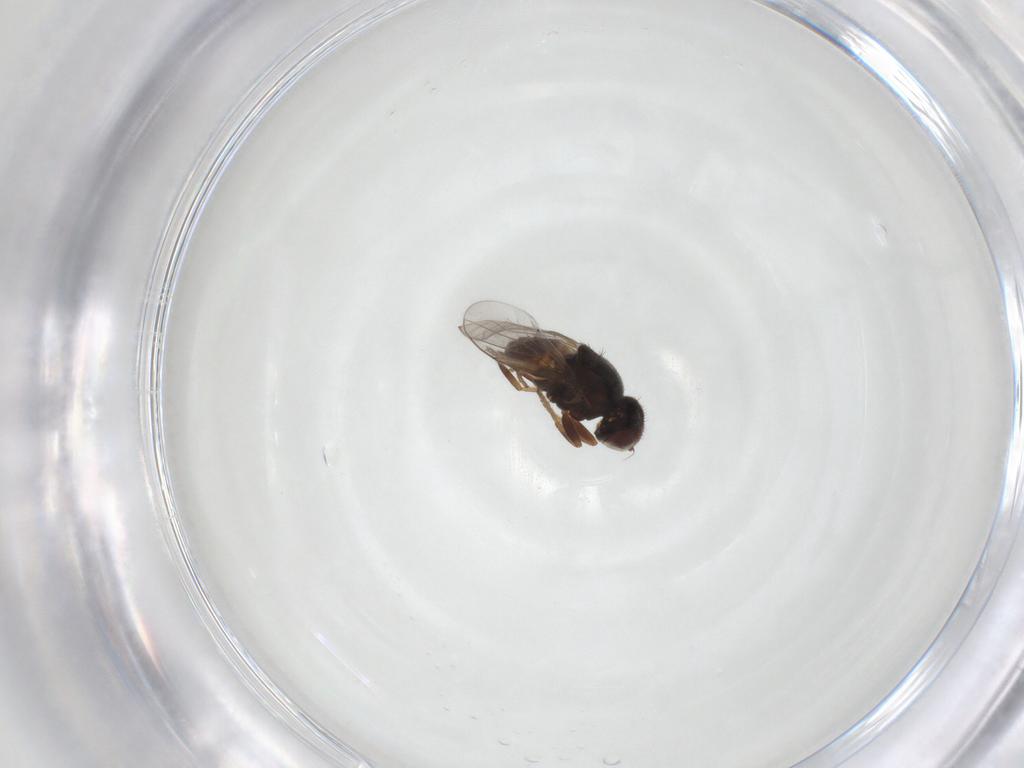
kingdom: Animalia
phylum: Arthropoda
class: Insecta
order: Diptera
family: Chloropidae
